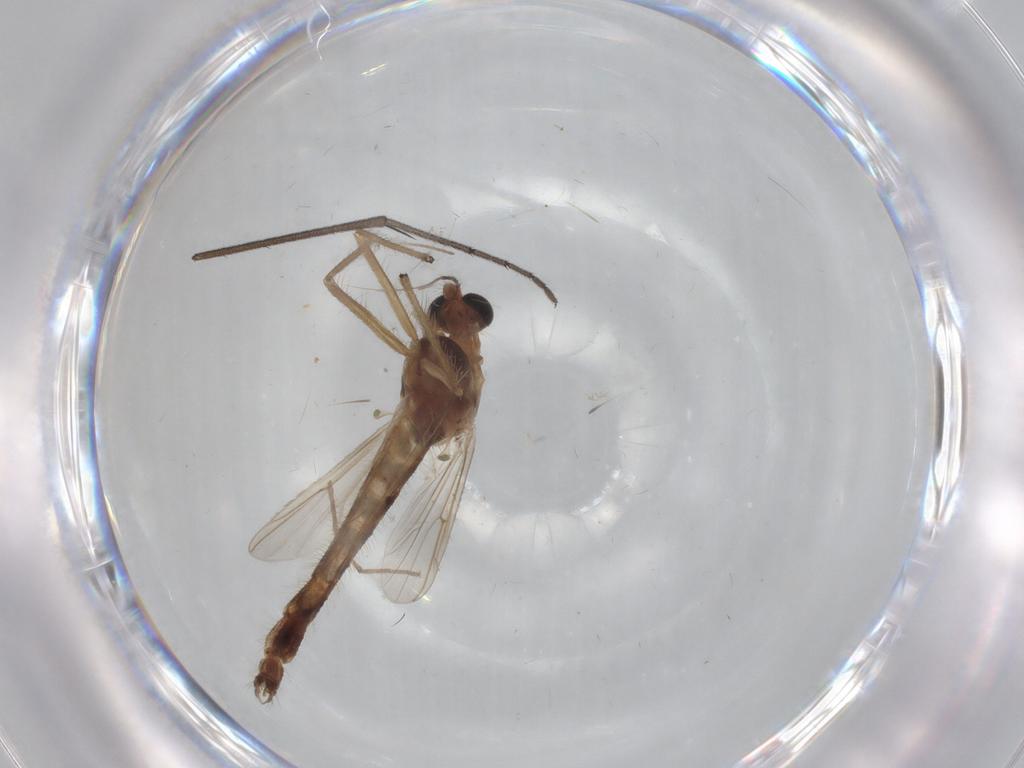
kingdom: Animalia
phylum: Arthropoda
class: Insecta
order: Diptera
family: Chironomidae
